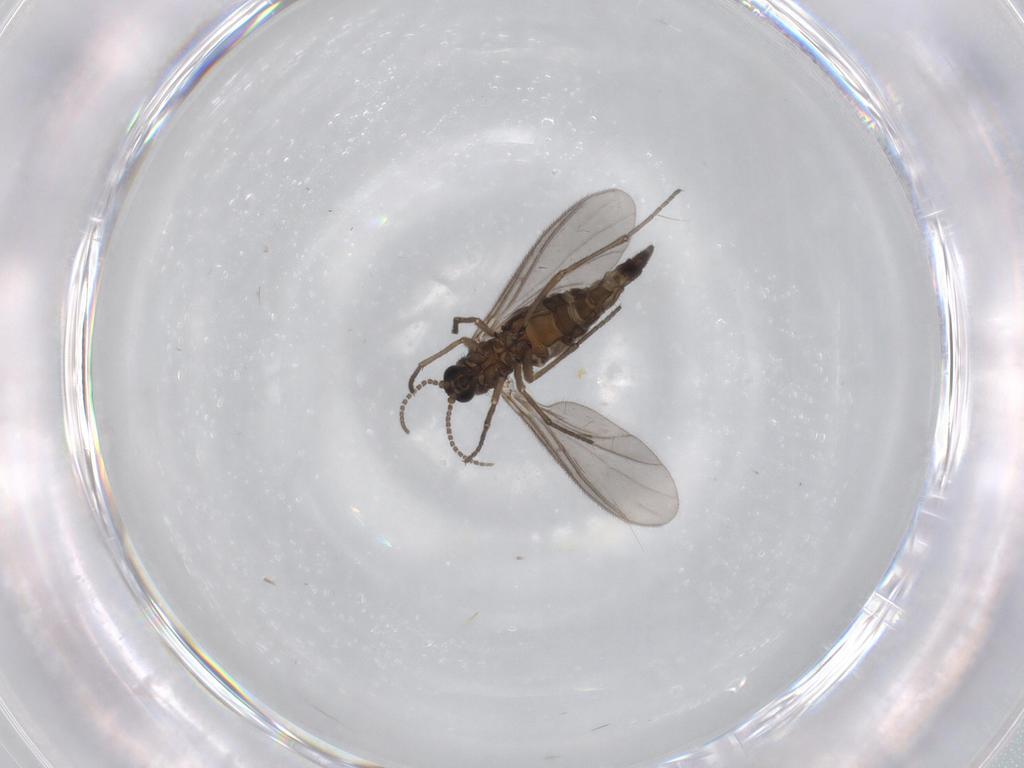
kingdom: Animalia
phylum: Arthropoda
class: Insecta
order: Diptera
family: Sciaridae
